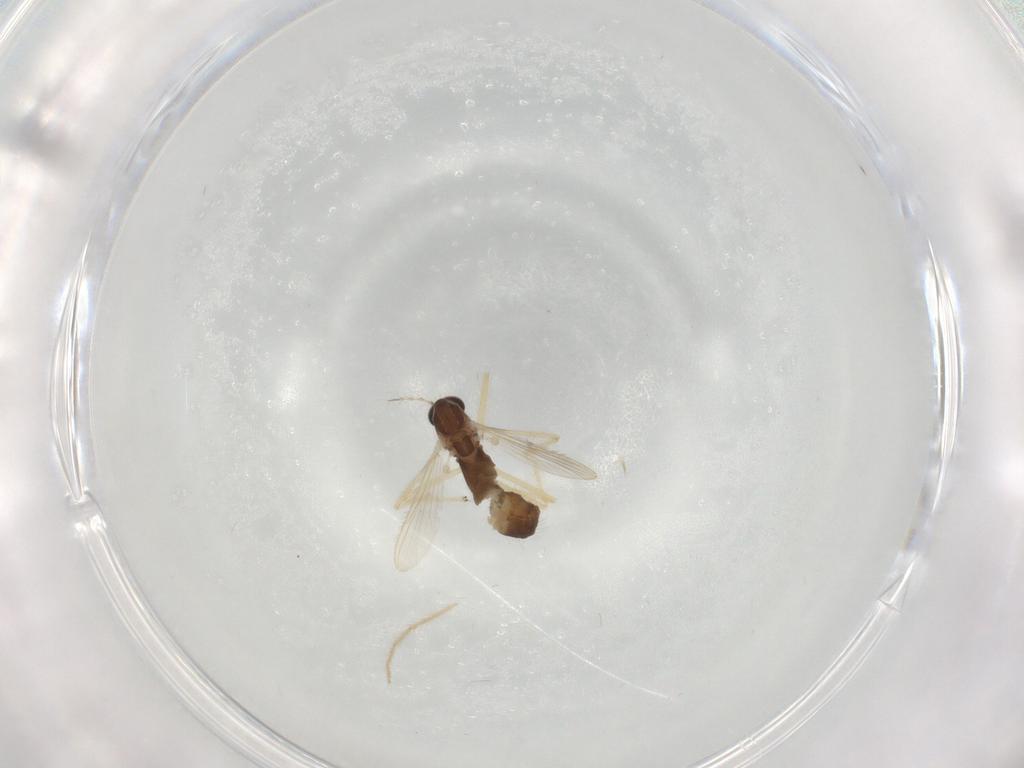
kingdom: Animalia
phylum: Arthropoda
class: Insecta
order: Diptera
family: Chironomidae
